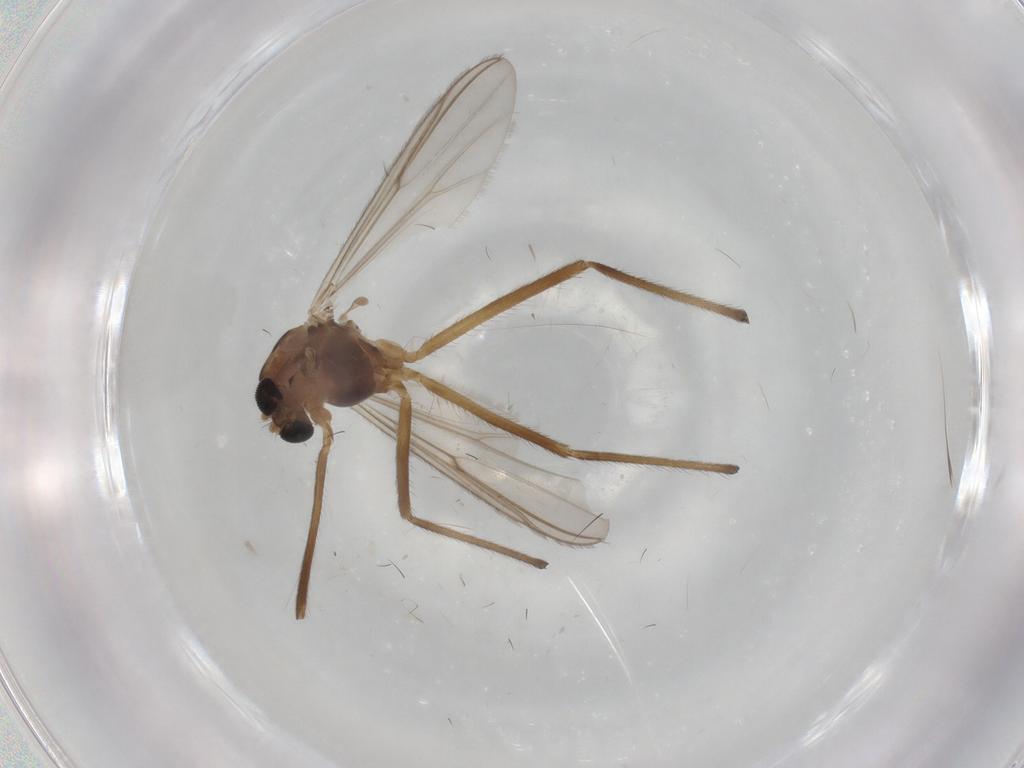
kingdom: Animalia
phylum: Arthropoda
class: Insecta
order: Diptera
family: Chironomidae
